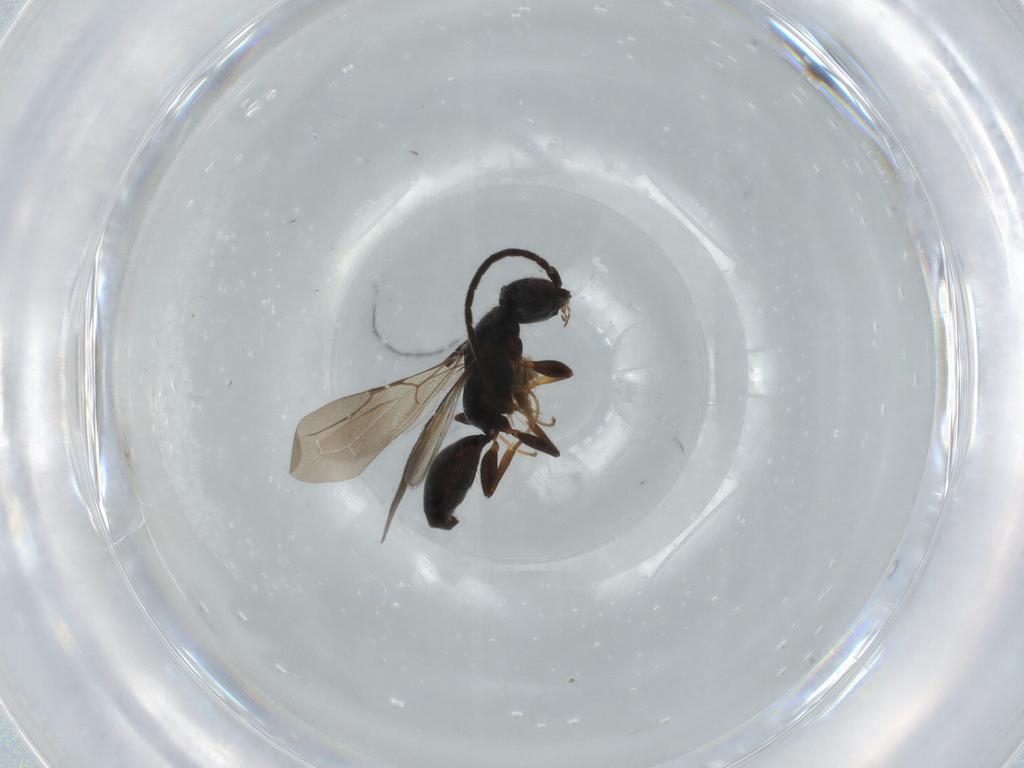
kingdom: Animalia
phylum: Arthropoda
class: Insecta
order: Hymenoptera
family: Bethylidae
